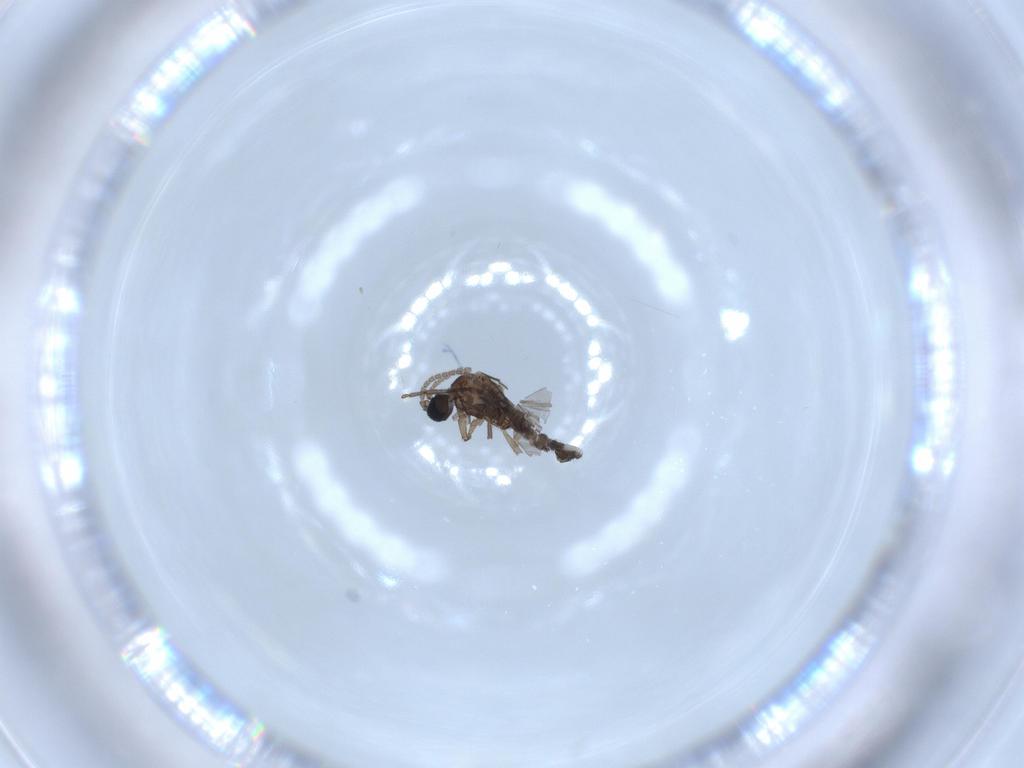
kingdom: Animalia
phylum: Arthropoda
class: Insecta
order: Diptera
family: Sciaridae
